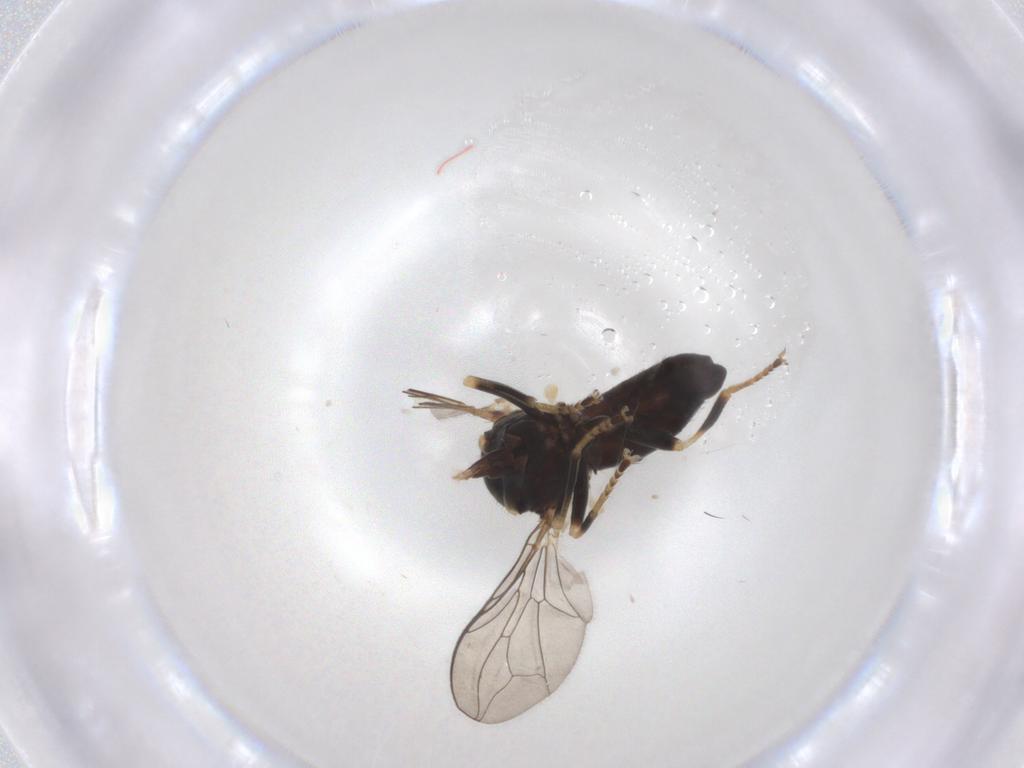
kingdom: Animalia
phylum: Arthropoda
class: Insecta
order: Diptera
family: Pipunculidae
